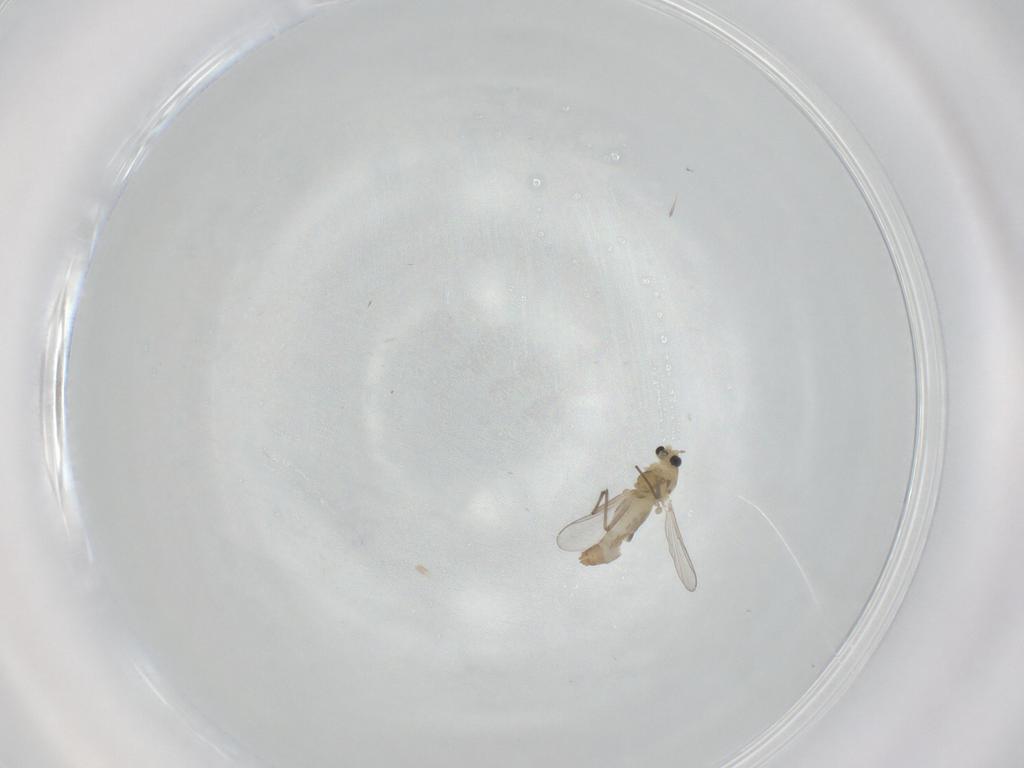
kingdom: Animalia
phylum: Arthropoda
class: Insecta
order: Diptera
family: Chironomidae
